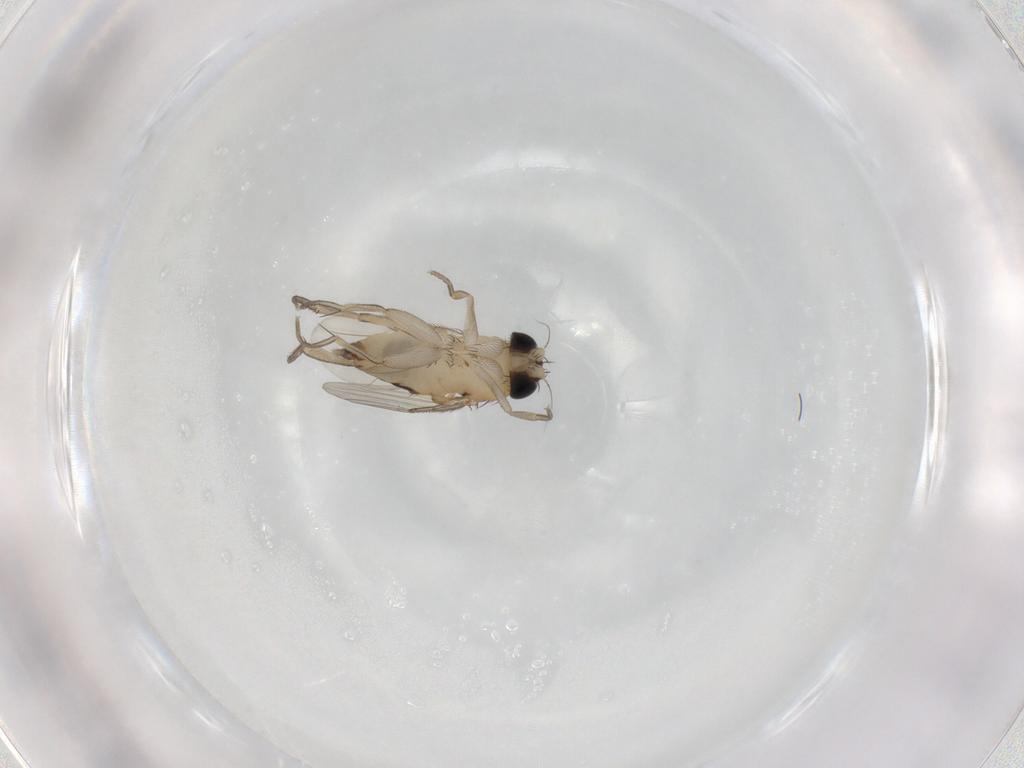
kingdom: Animalia
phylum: Arthropoda
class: Insecta
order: Diptera
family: Phoridae
